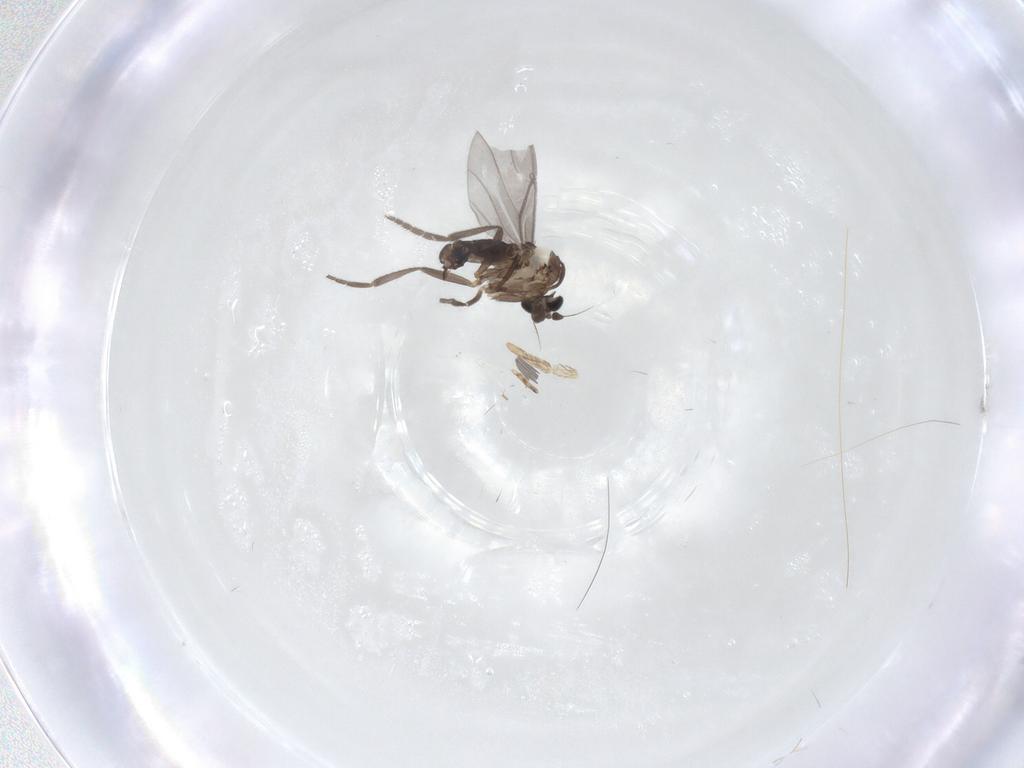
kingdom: Animalia
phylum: Arthropoda
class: Insecta
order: Diptera
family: Phoridae
